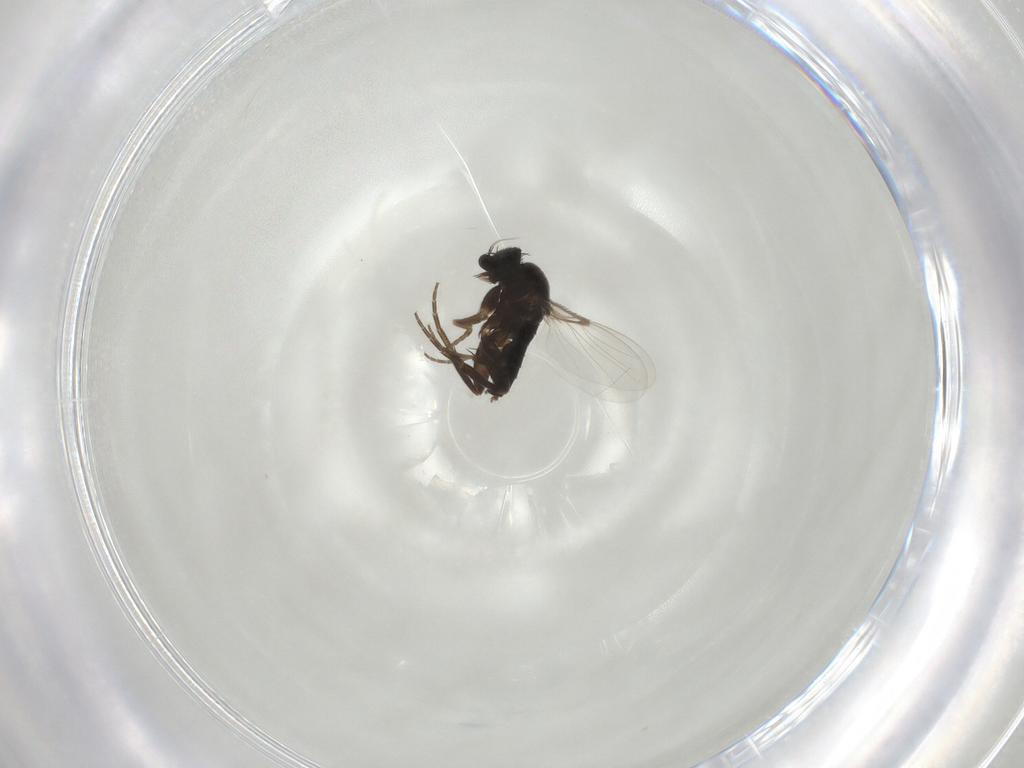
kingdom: Animalia
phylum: Arthropoda
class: Insecta
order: Diptera
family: Phoridae
